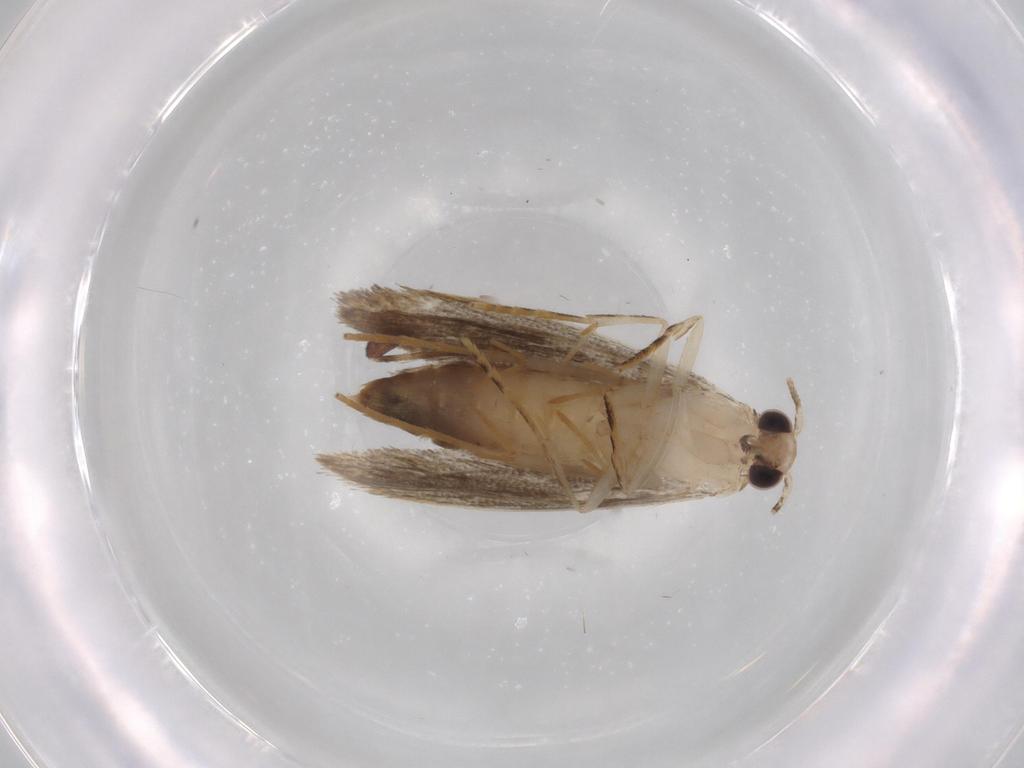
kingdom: Animalia
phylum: Arthropoda
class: Insecta
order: Lepidoptera
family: Tineidae
